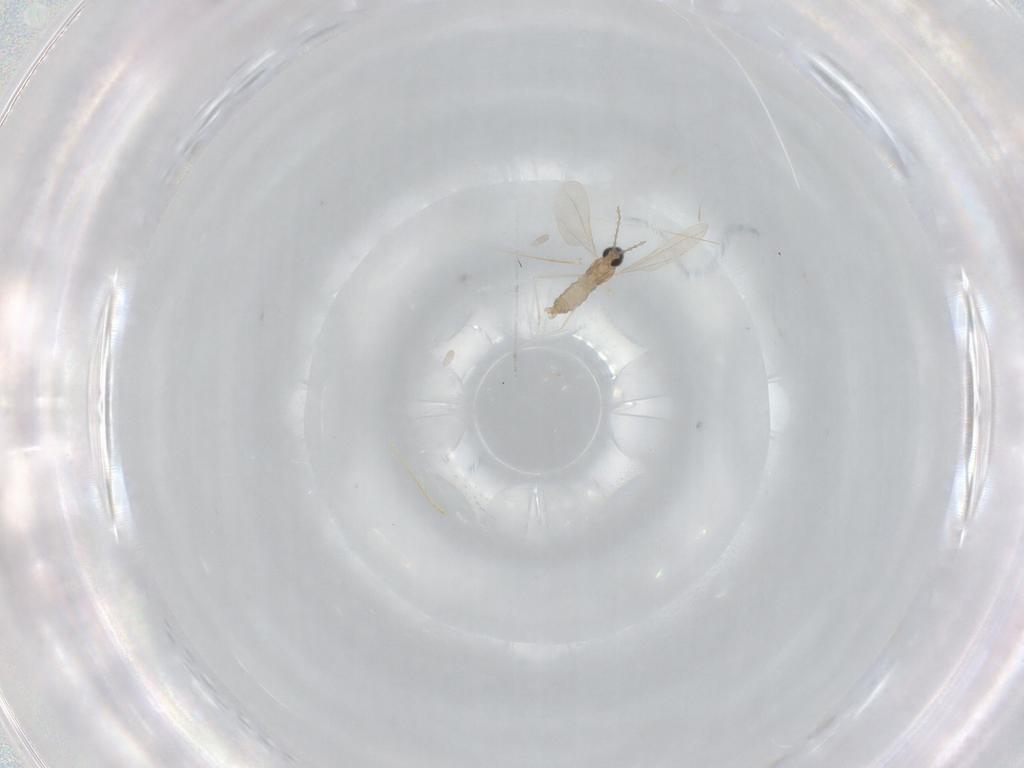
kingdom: Animalia
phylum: Arthropoda
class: Insecta
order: Diptera
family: Cecidomyiidae
